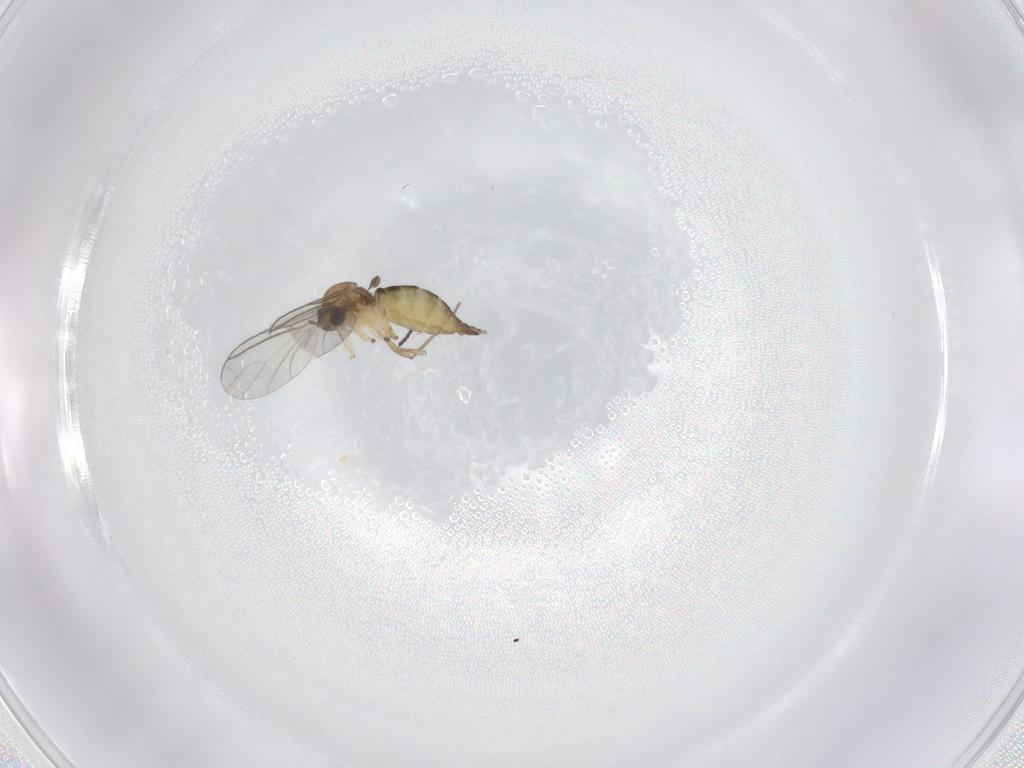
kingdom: Animalia
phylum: Arthropoda
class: Insecta
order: Diptera
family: Sciaridae
